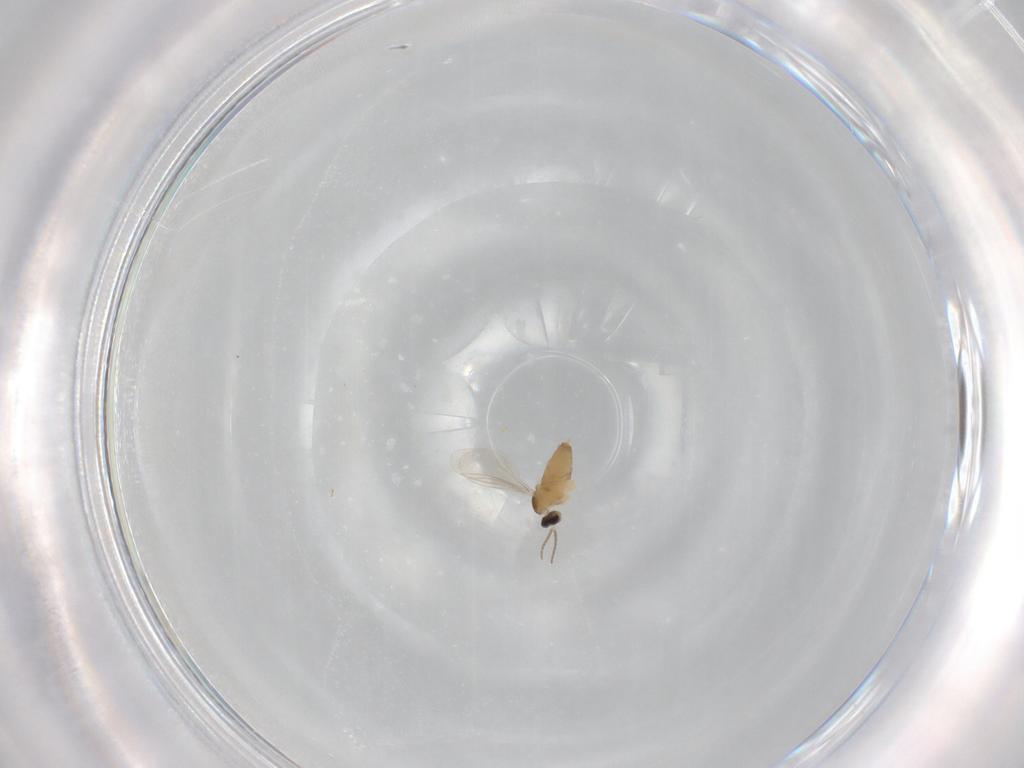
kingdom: Animalia
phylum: Arthropoda
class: Insecta
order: Diptera
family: Cecidomyiidae
